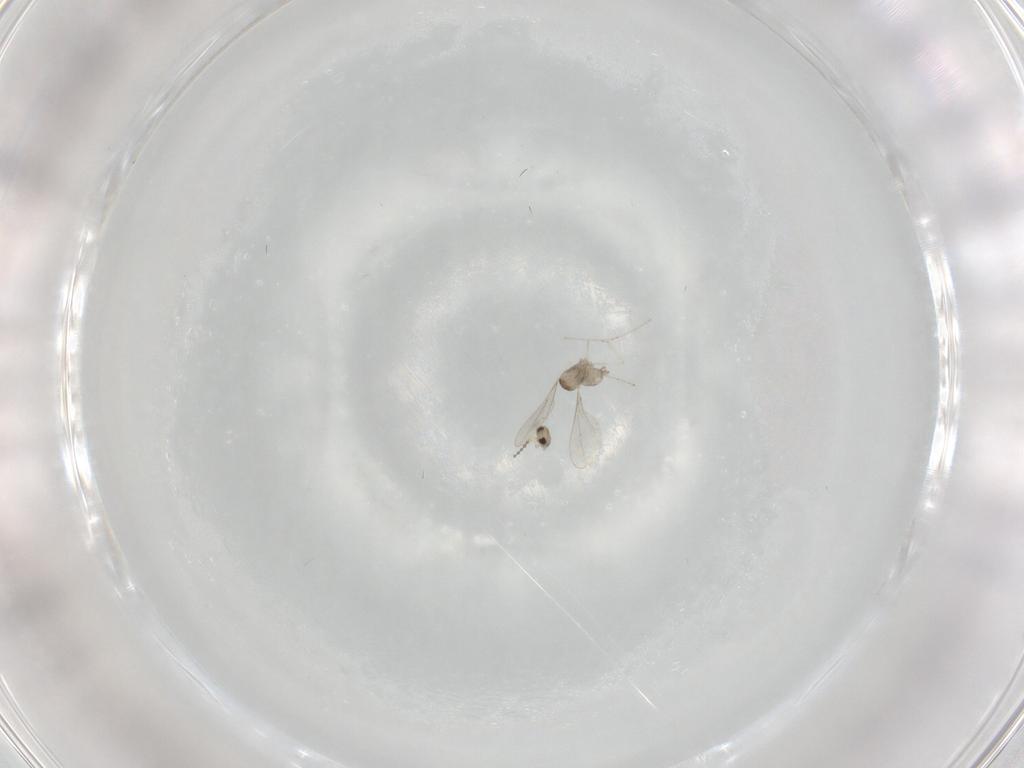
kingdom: Animalia
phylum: Arthropoda
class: Insecta
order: Diptera
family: Cecidomyiidae
